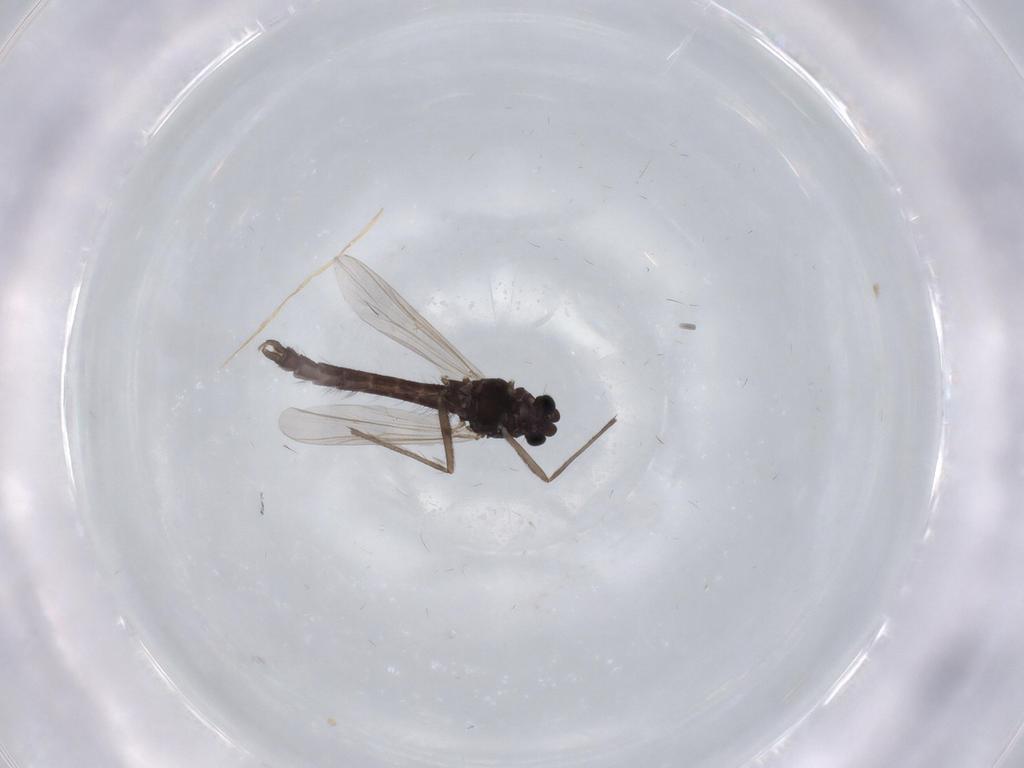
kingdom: Animalia
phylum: Arthropoda
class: Insecta
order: Diptera
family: Chironomidae
